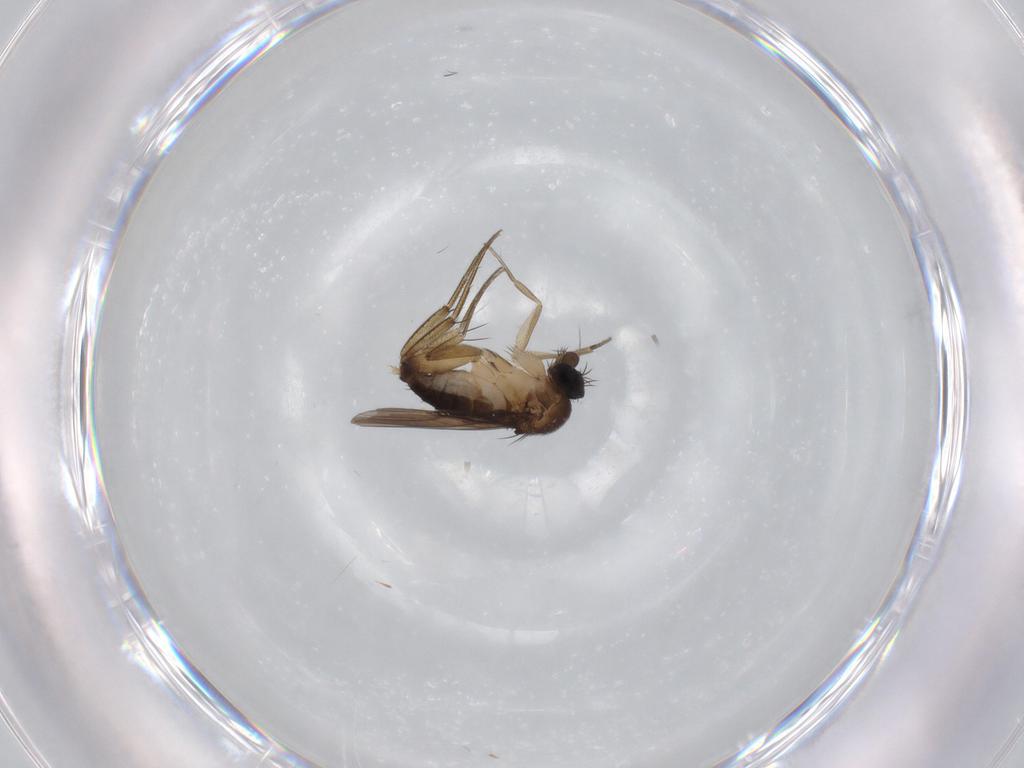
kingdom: Animalia
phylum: Arthropoda
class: Insecta
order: Diptera
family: Phoridae
